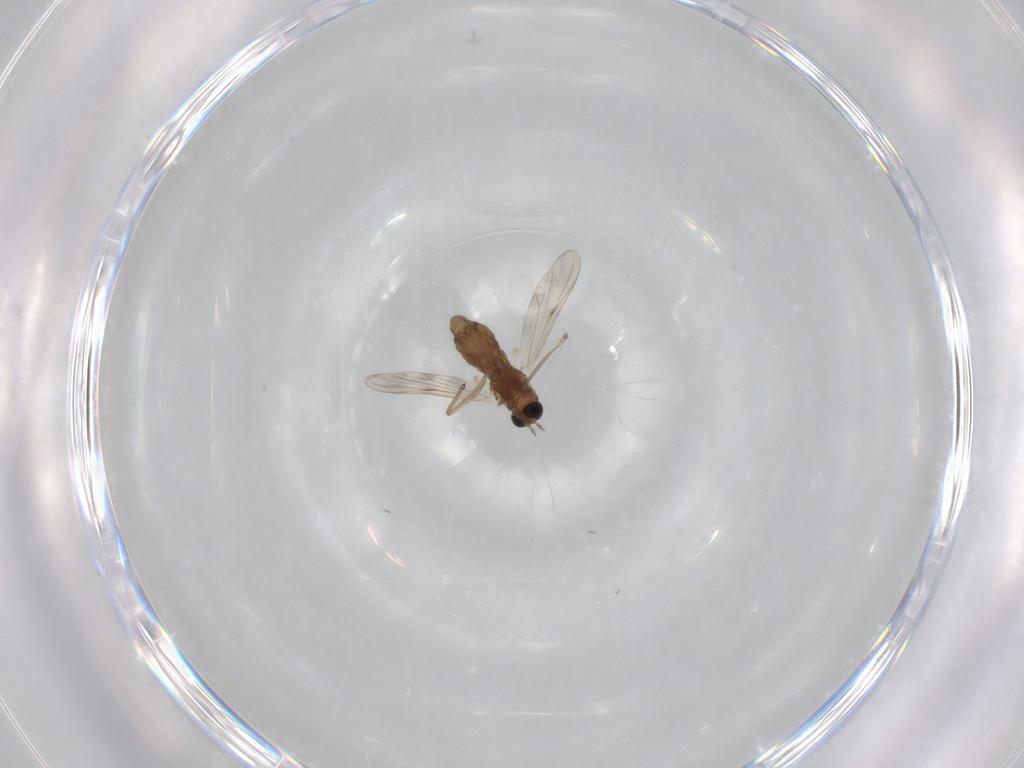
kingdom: Animalia
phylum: Arthropoda
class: Insecta
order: Diptera
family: Chironomidae
